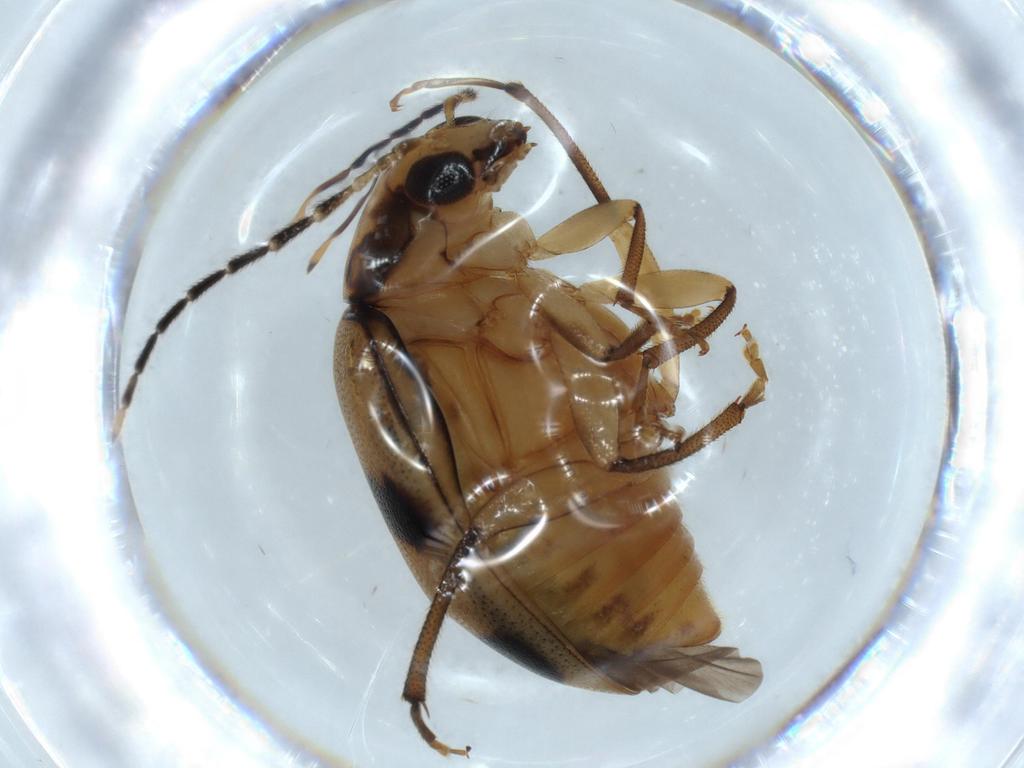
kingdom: Animalia
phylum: Arthropoda
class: Insecta
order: Coleoptera
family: Chrysomelidae
